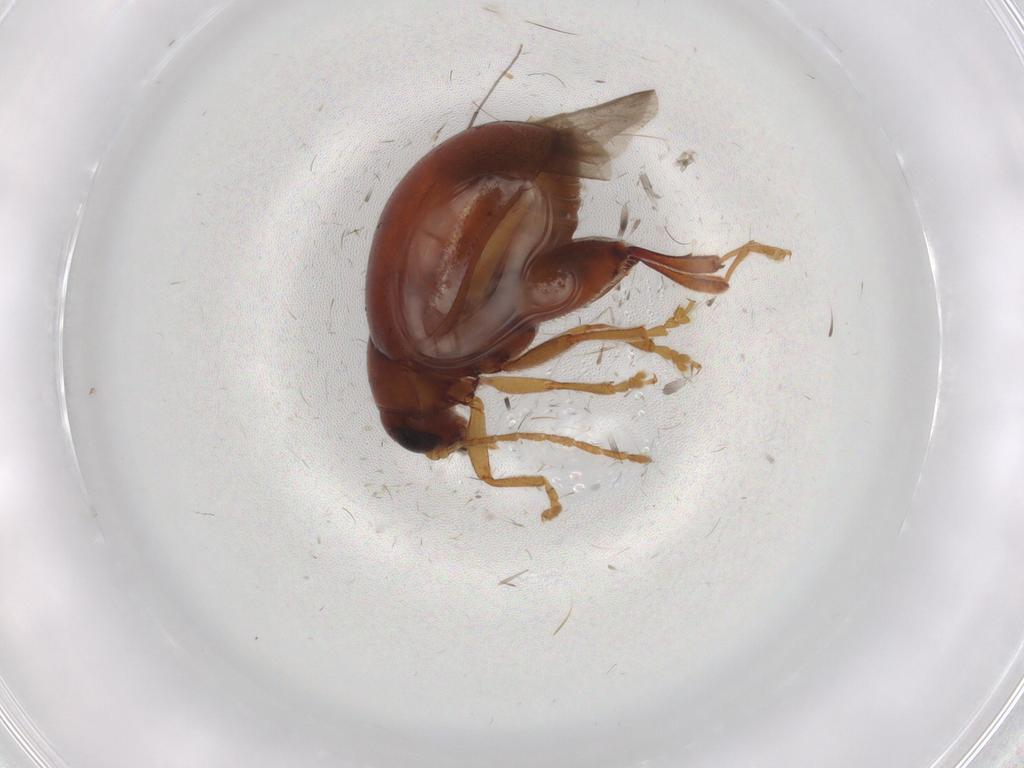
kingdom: Animalia
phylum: Arthropoda
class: Insecta
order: Coleoptera
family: Chrysomelidae
